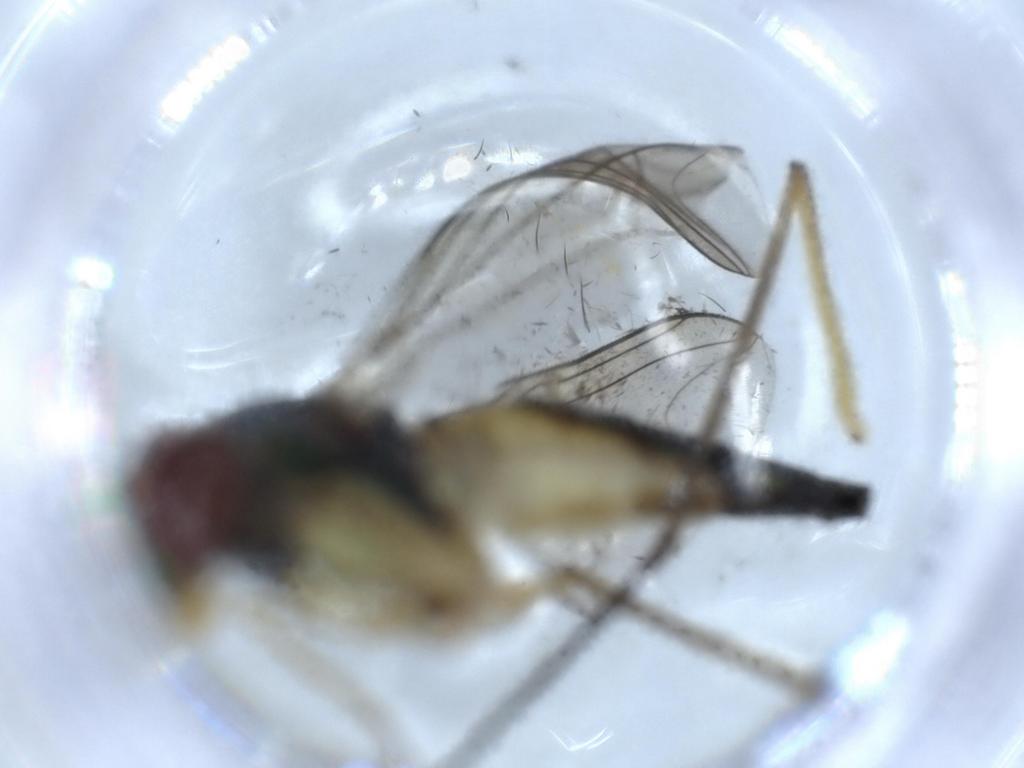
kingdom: Animalia
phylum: Arthropoda
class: Insecta
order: Diptera
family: Dolichopodidae
